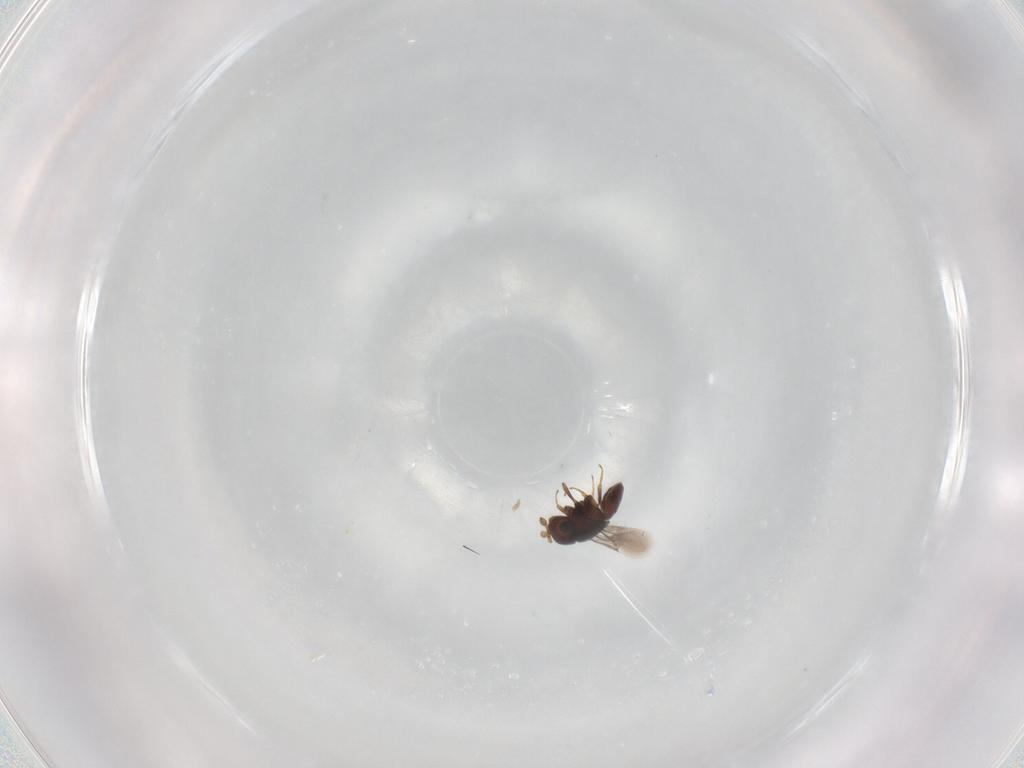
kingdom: Animalia
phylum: Arthropoda
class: Insecta
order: Hymenoptera
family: Scelionidae
